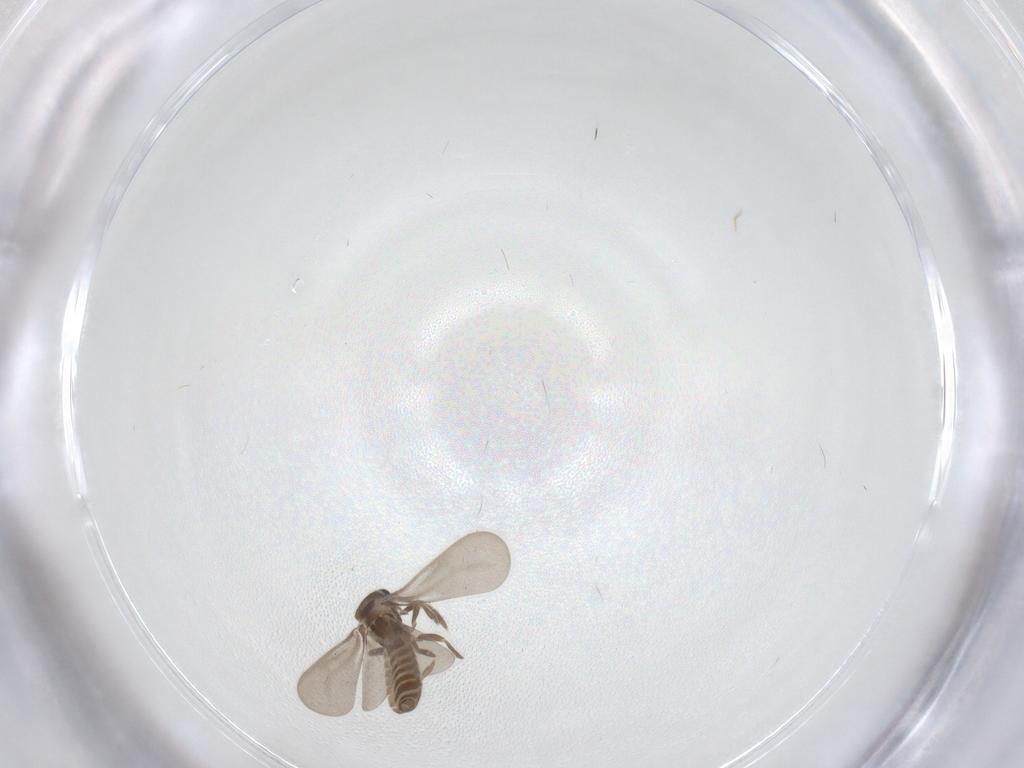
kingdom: Animalia
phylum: Arthropoda
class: Insecta
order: Hemiptera
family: Enicocephalidae
